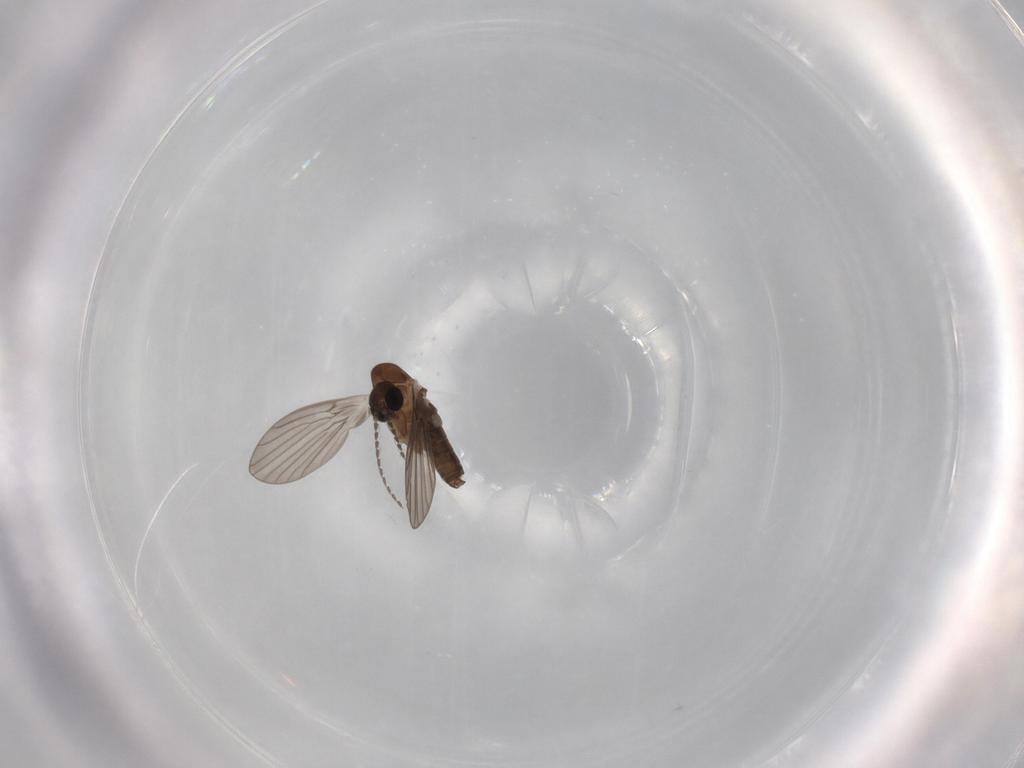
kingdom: Animalia
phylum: Arthropoda
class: Insecta
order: Diptera
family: Psychodidae
